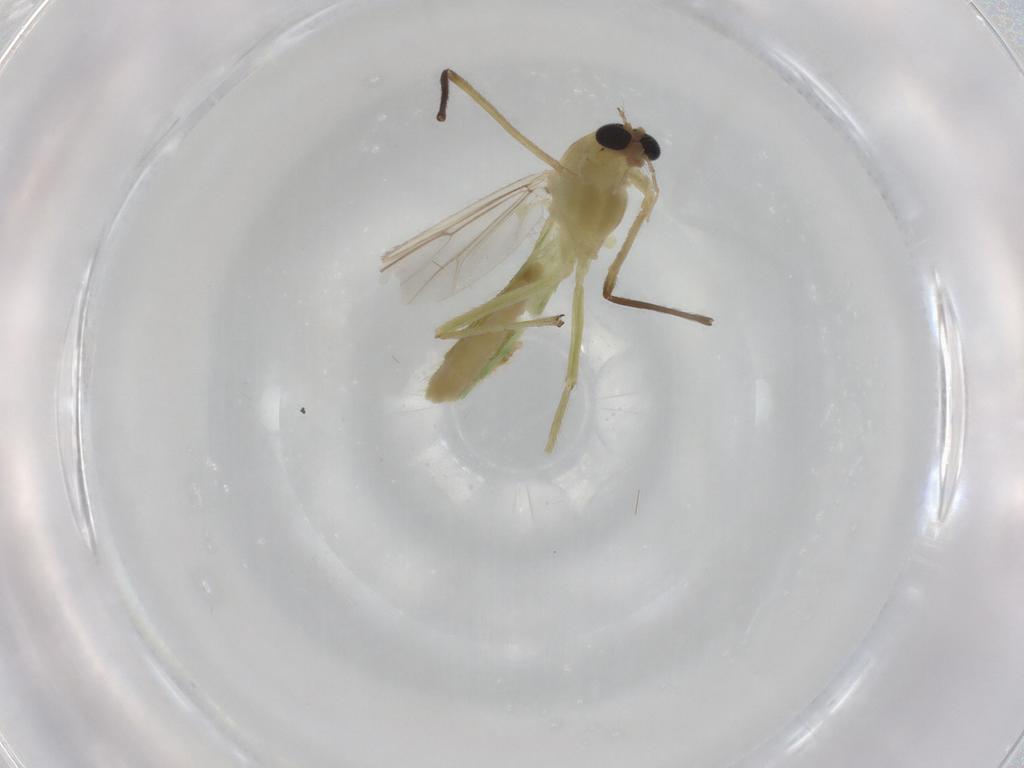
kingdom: Animalia
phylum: Arthropoda
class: Insecta
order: Diptera
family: Chironomidae
